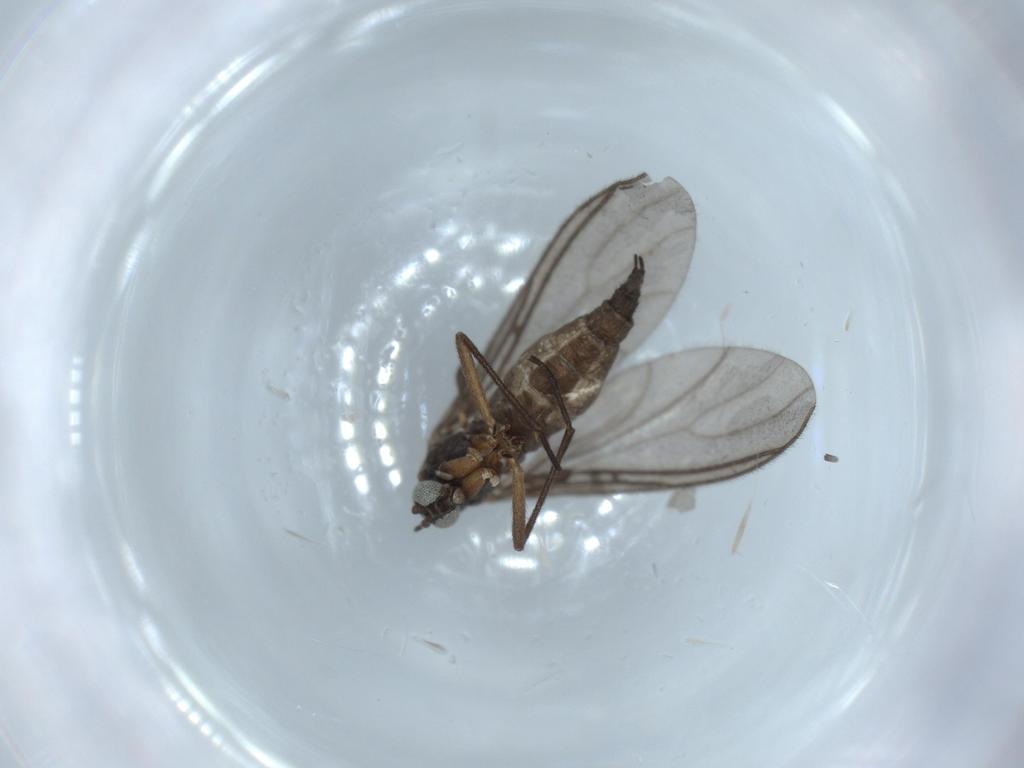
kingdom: Animalia
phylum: Arthropoda
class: Insecta
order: Diptera
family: Sciaridae
